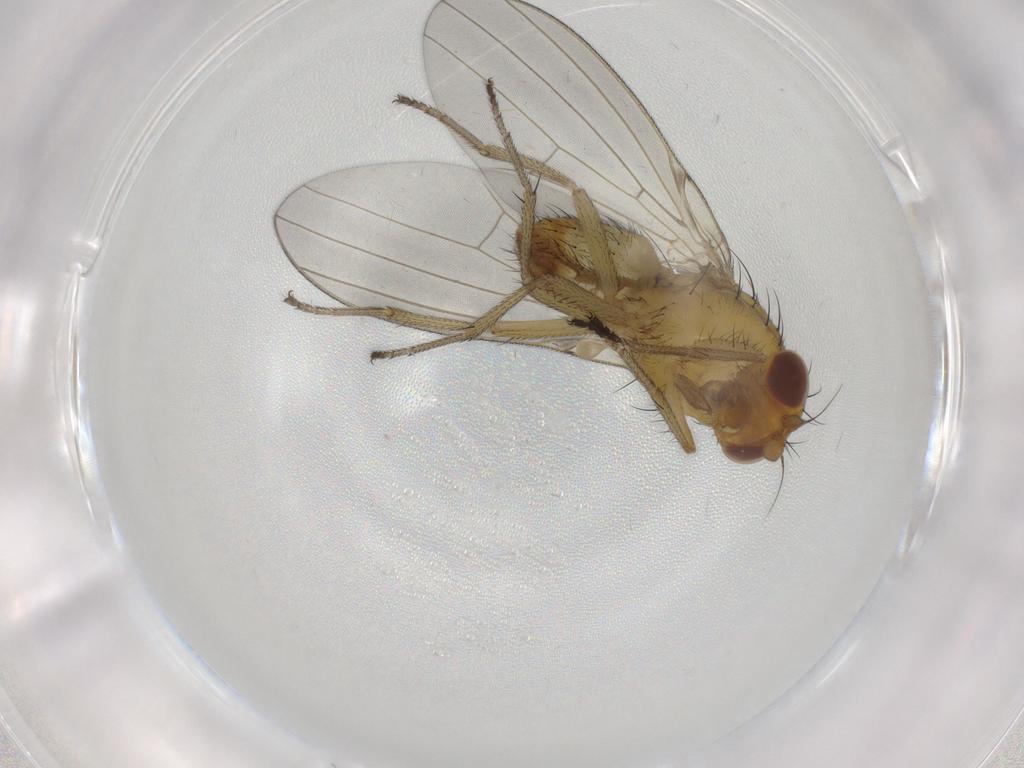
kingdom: Animalia
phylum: Arthropoda
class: Insecta
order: Diptera
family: Lauxaniidae
